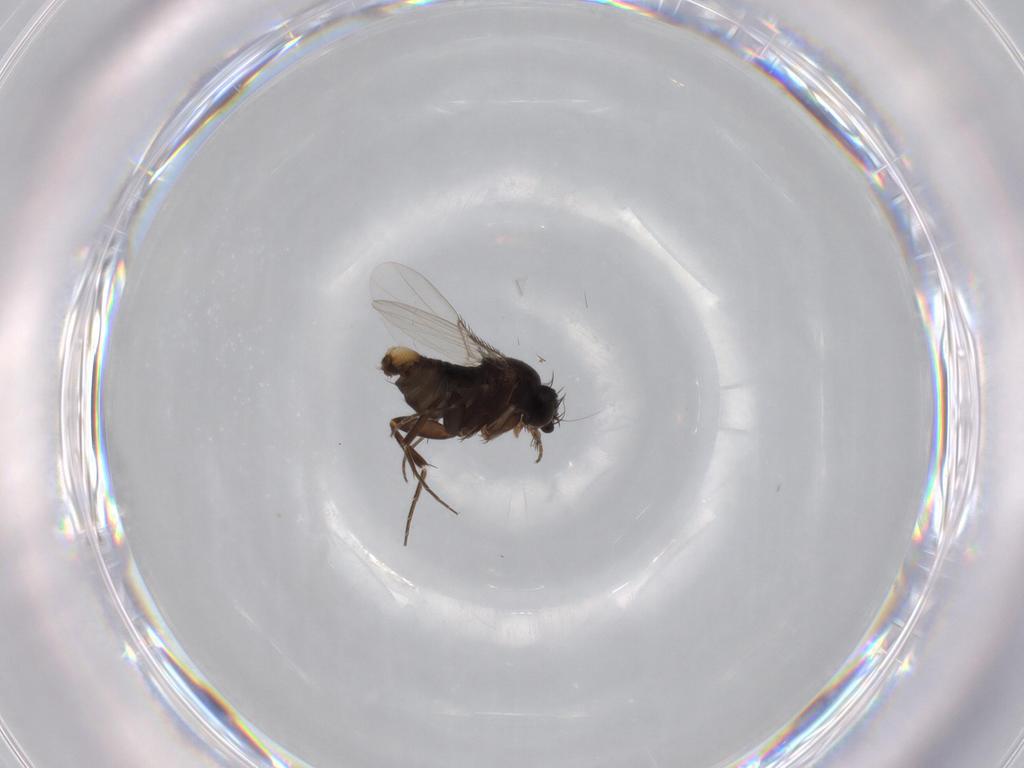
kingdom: Animalia
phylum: Arthropoda
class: Insecta
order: Diptera
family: Phoridae
